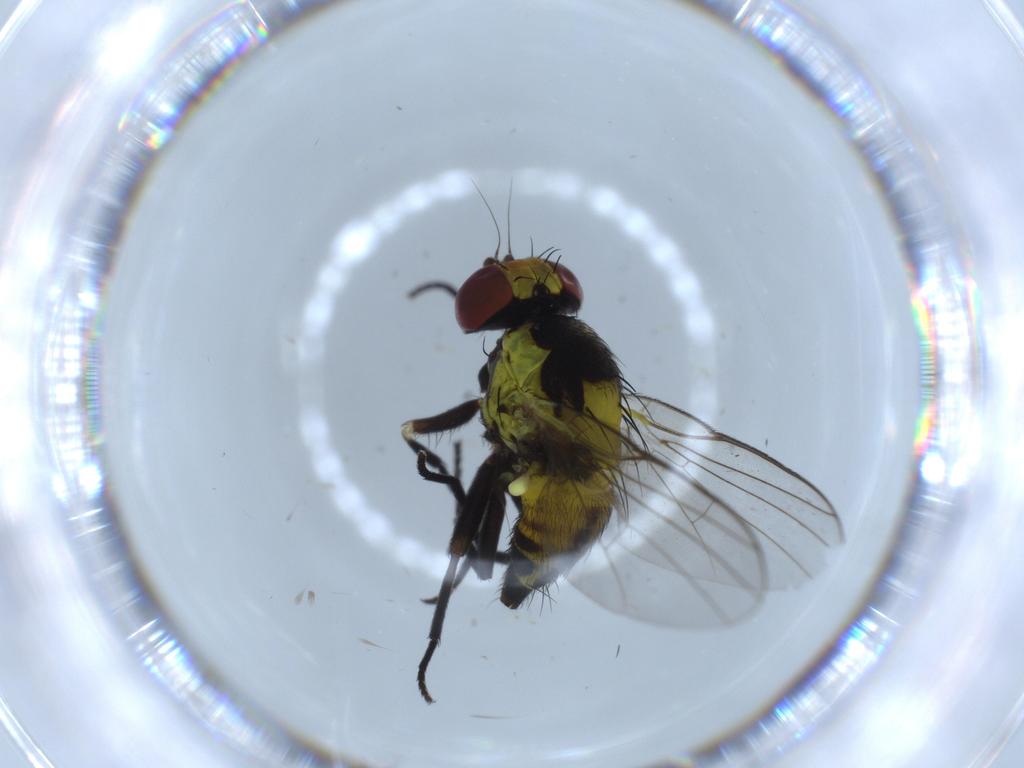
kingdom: Animalia
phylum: Arthropoda
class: Insecta
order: Diptera
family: Agromyzidae
